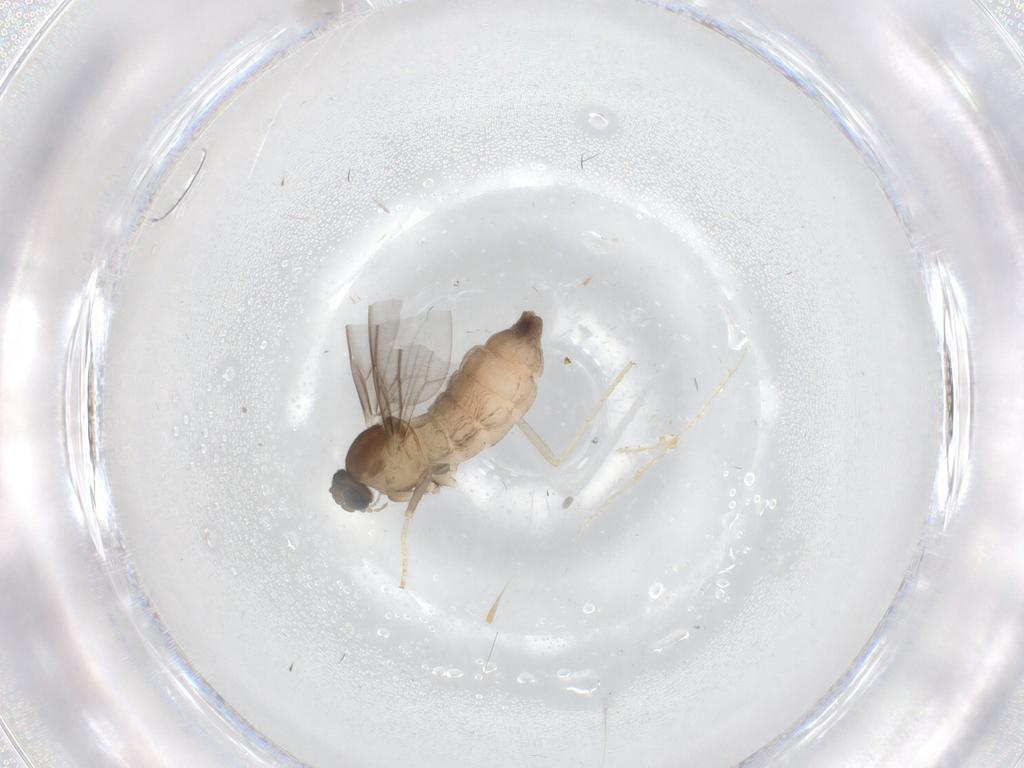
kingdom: Animalia
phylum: Arthropoda
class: Insecta
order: Diptera
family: Cecidomyiidae
